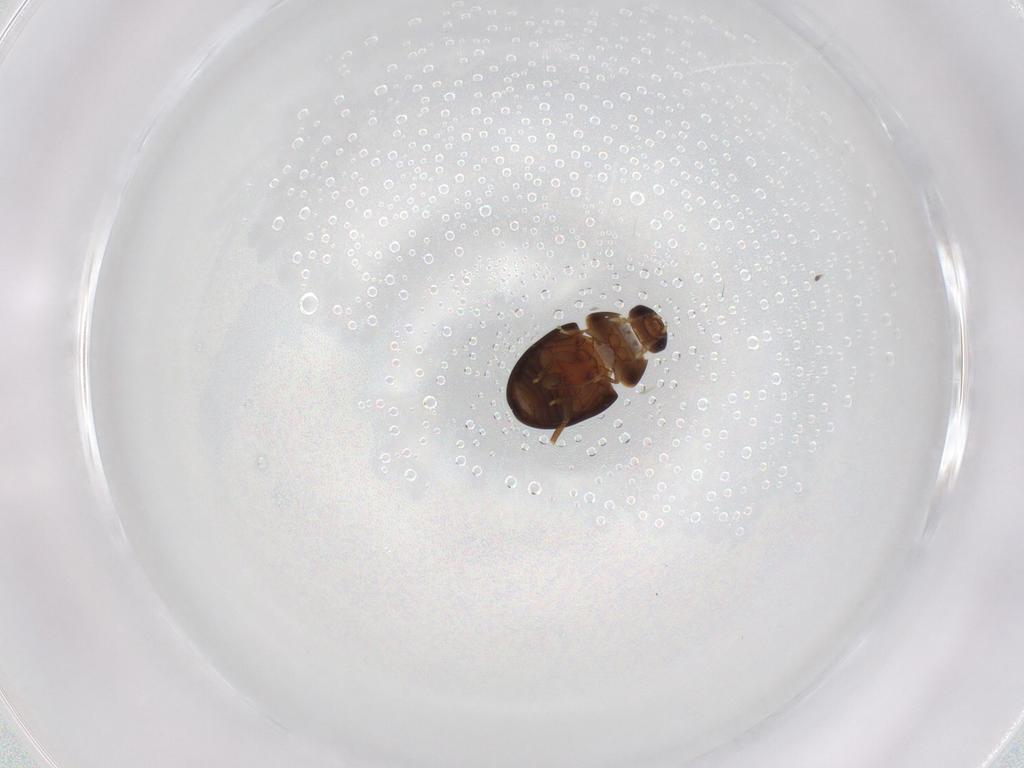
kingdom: Animalia
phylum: Arthropoda
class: Insecta
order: Coleoptera
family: Phalacridae
